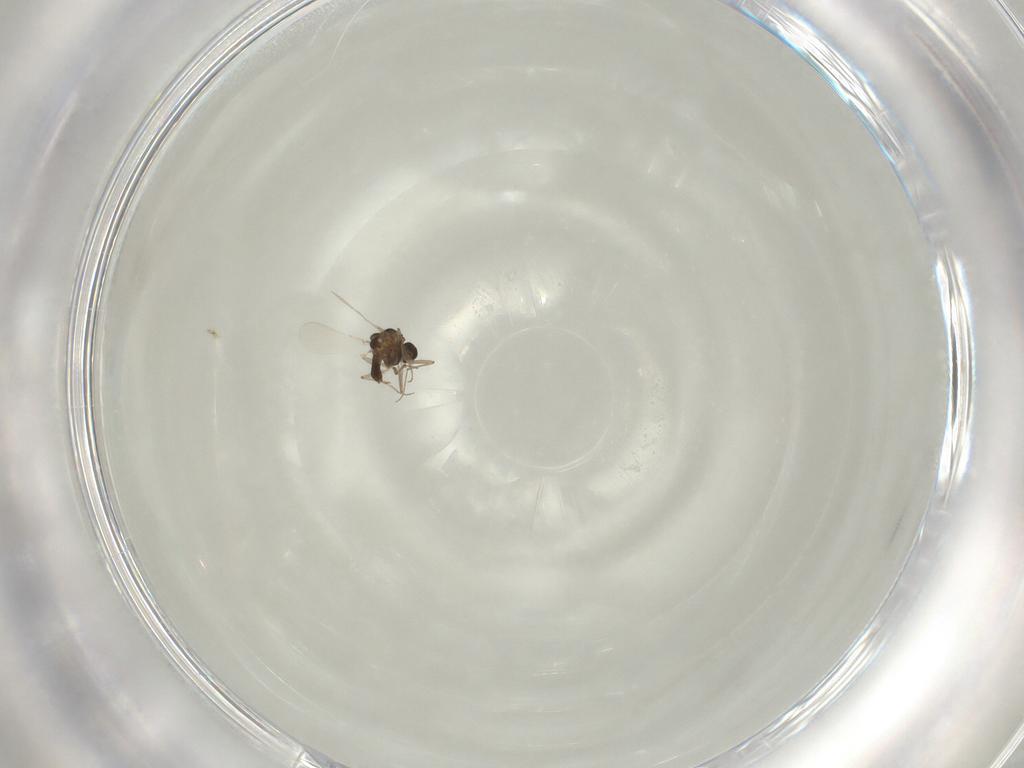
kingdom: Animalia
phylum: Arthropoda
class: Insecta
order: Diptera
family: Chironomidae
